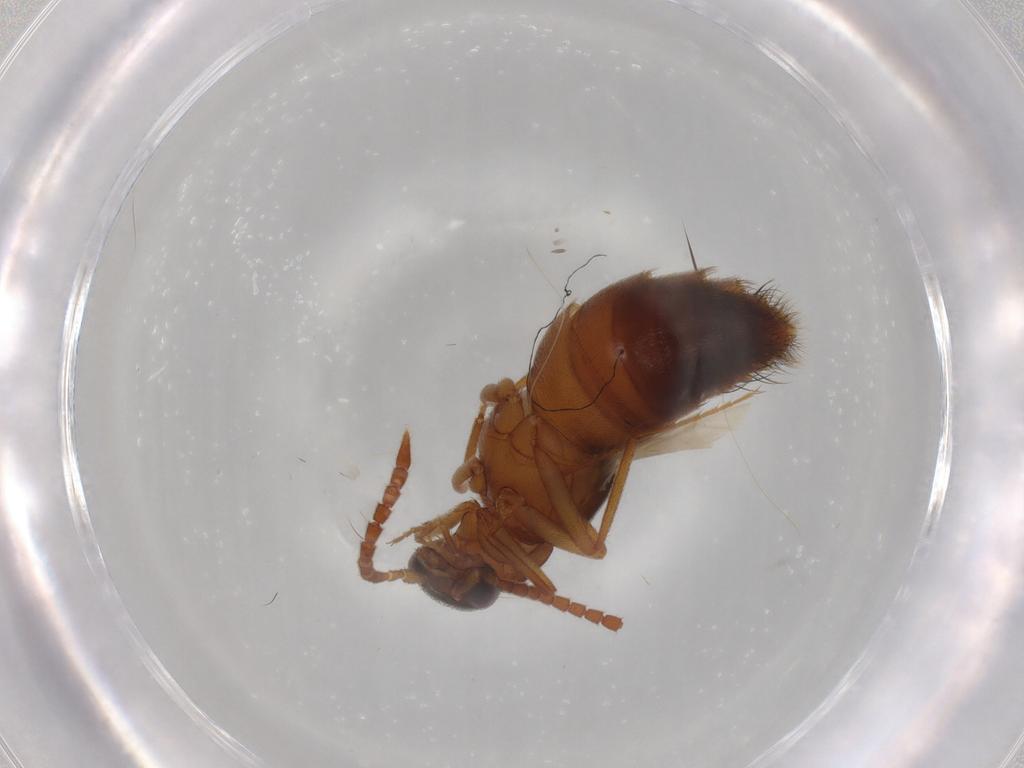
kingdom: Animalia
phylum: Arthropoda
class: Insecta
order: Coleoptera
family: Staphylinidae
